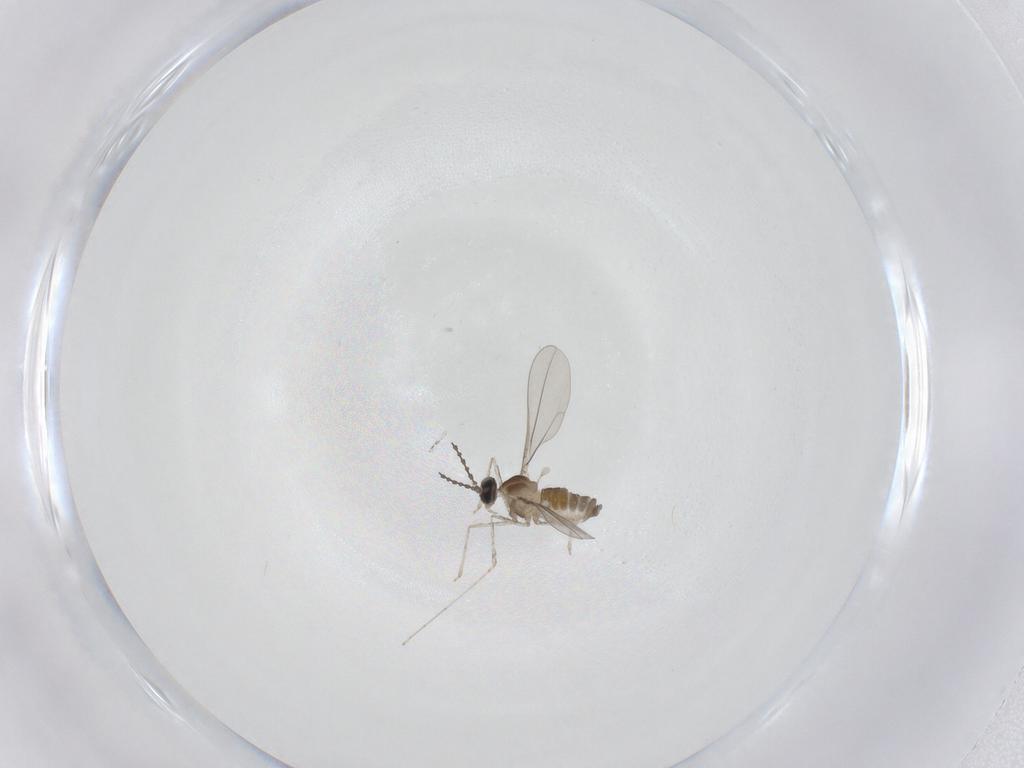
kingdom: Animalia
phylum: Arthropoda
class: Insecta
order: Diptera
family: Cecidomyiidae
